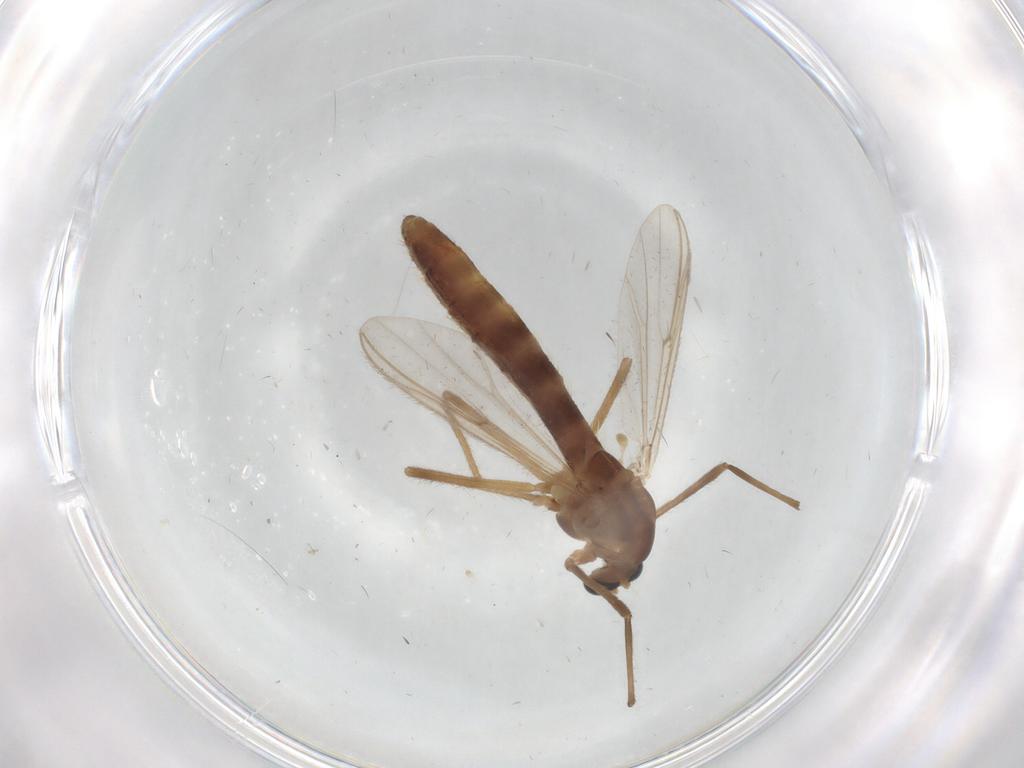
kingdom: Animalia
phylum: Arthropoda
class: Insecta
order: Diptera
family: Chironomidae
